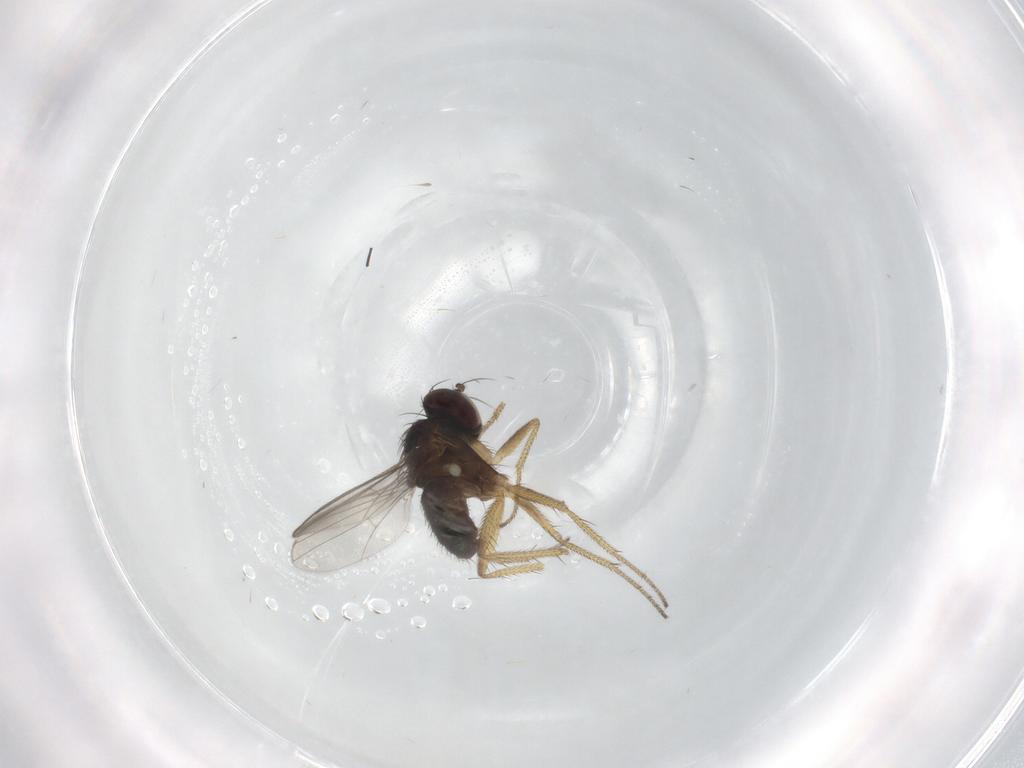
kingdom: Animalia
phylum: Arthropoda
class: Insecta
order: Diptera
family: Dolichopodidae
